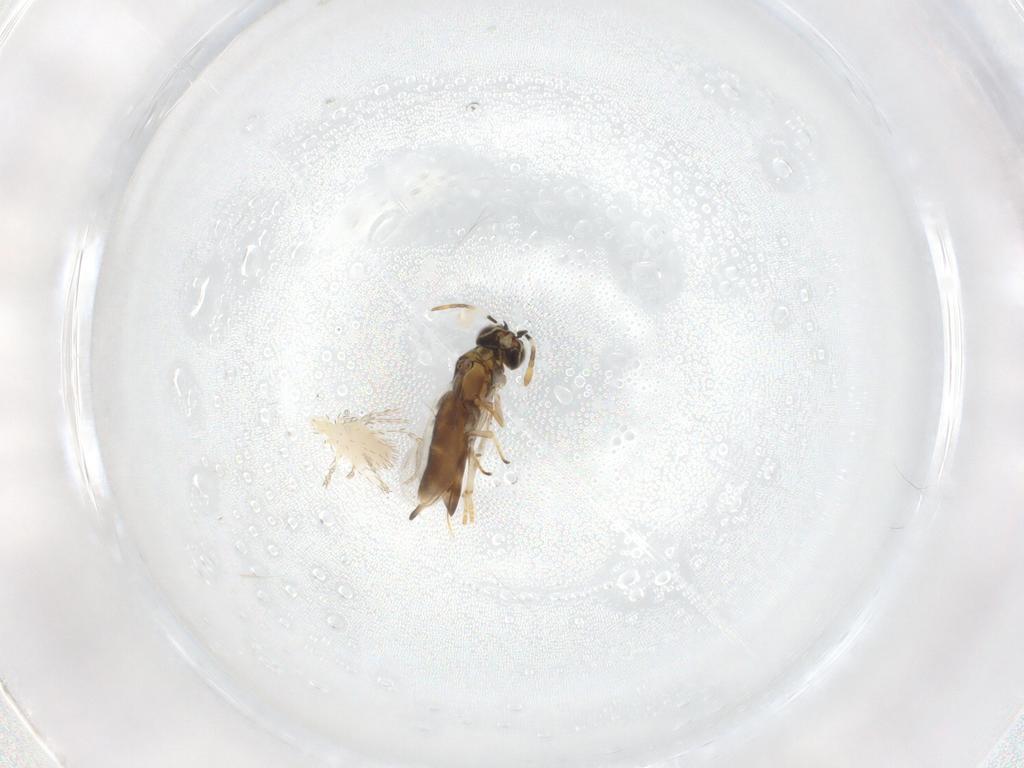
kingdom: Animalia
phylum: Arthropoda
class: Insecta
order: Hymenoptera
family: Encyrtidae
